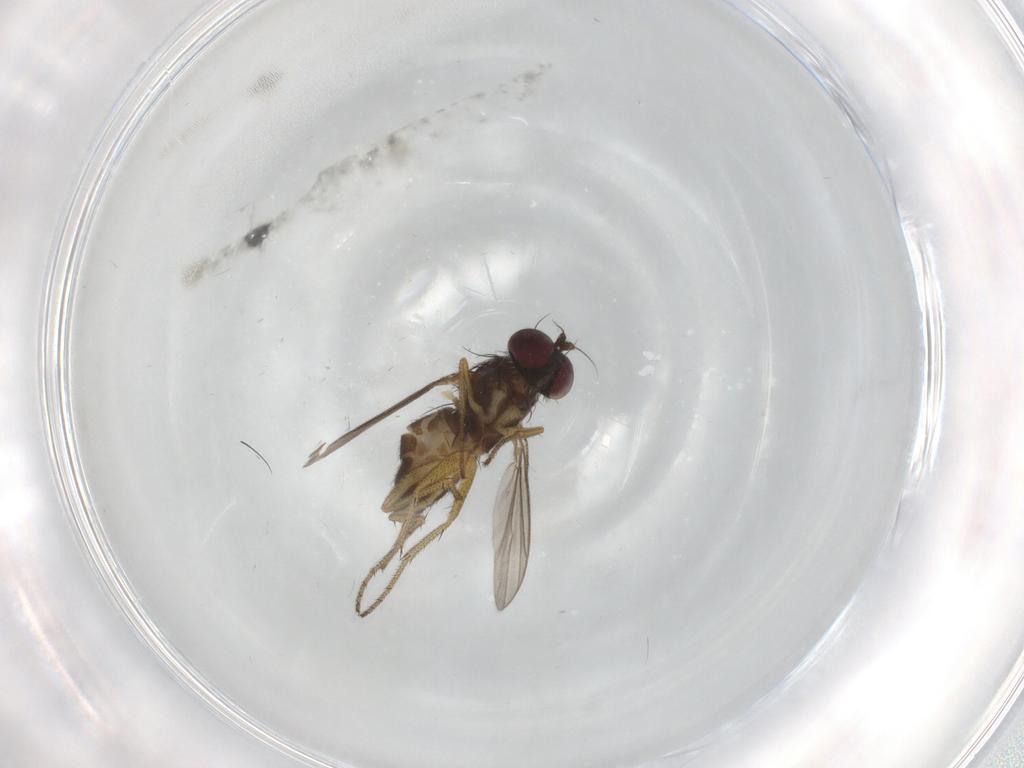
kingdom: Animalia
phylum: Arthropoda
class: Insecta
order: Diptera
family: Dolichopodidae
